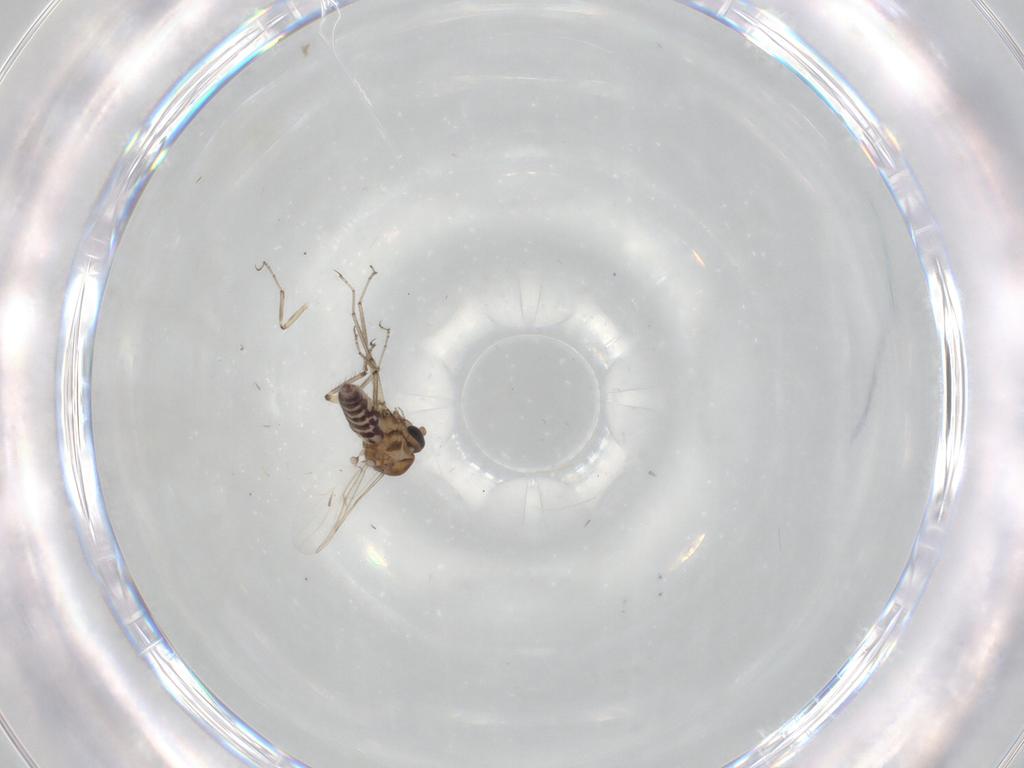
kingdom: Animalia
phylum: Arthropoda
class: Insecta
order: Diptera
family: Ceratopogonidae
